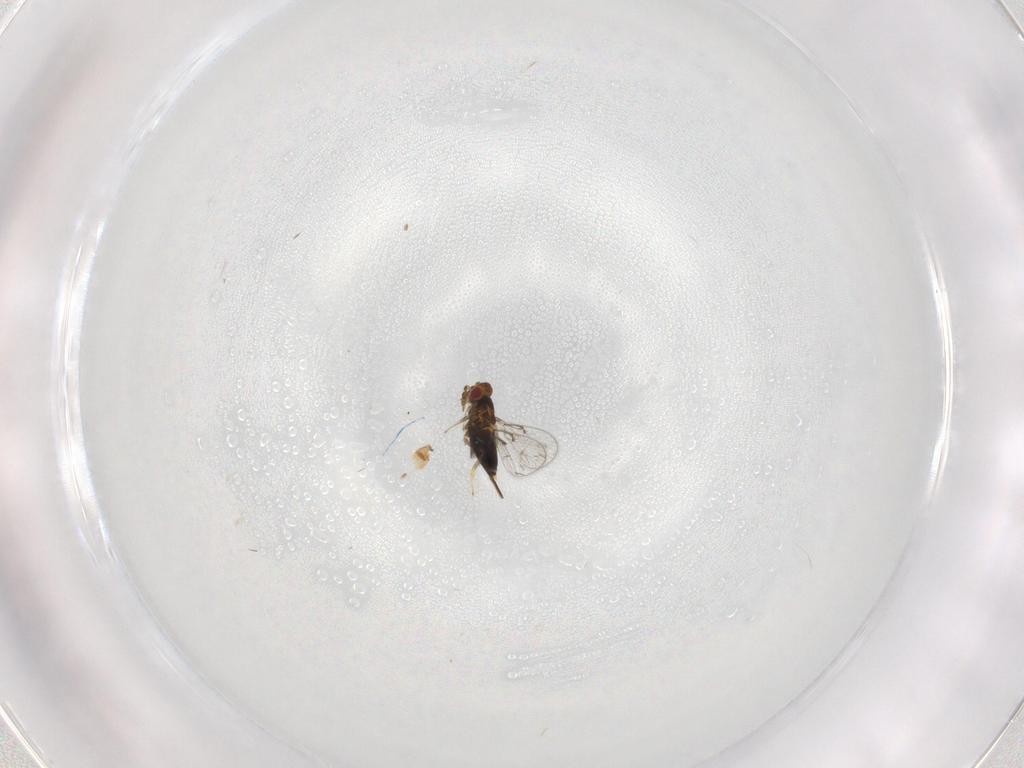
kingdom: Animalia
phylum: Arthropoda
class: Insecta
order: Hymenoptera
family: Trichogrammatidae
